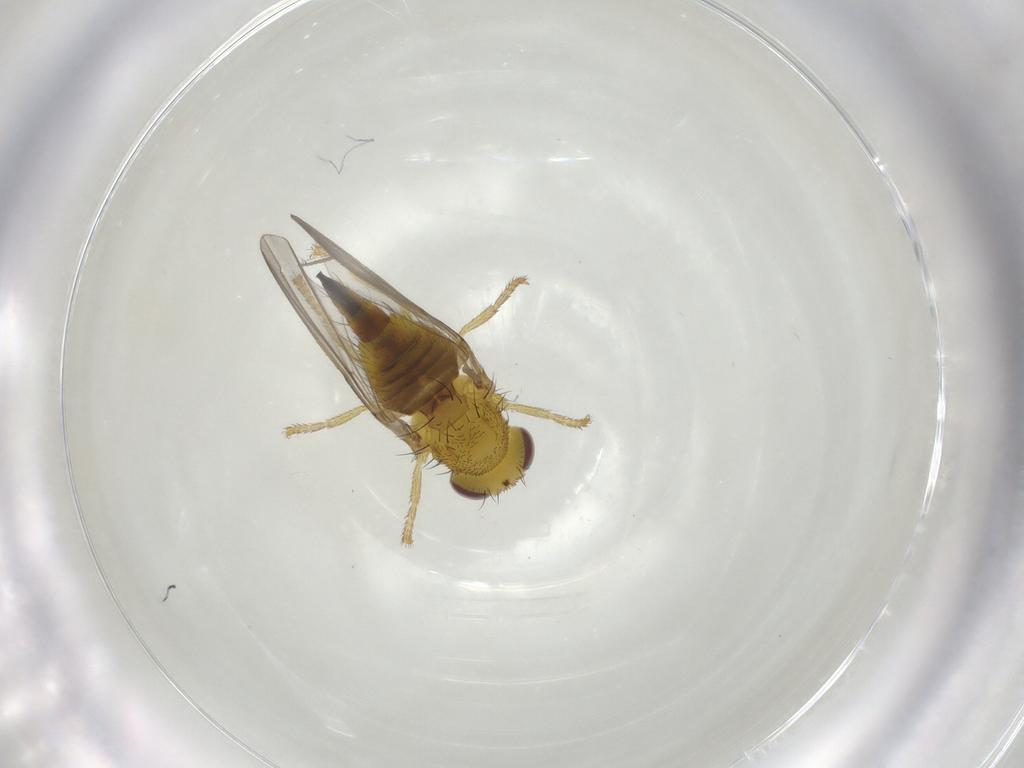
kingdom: Animalia
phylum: Arthropoda
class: Insecta
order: Diptera
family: Fergusoninidae
